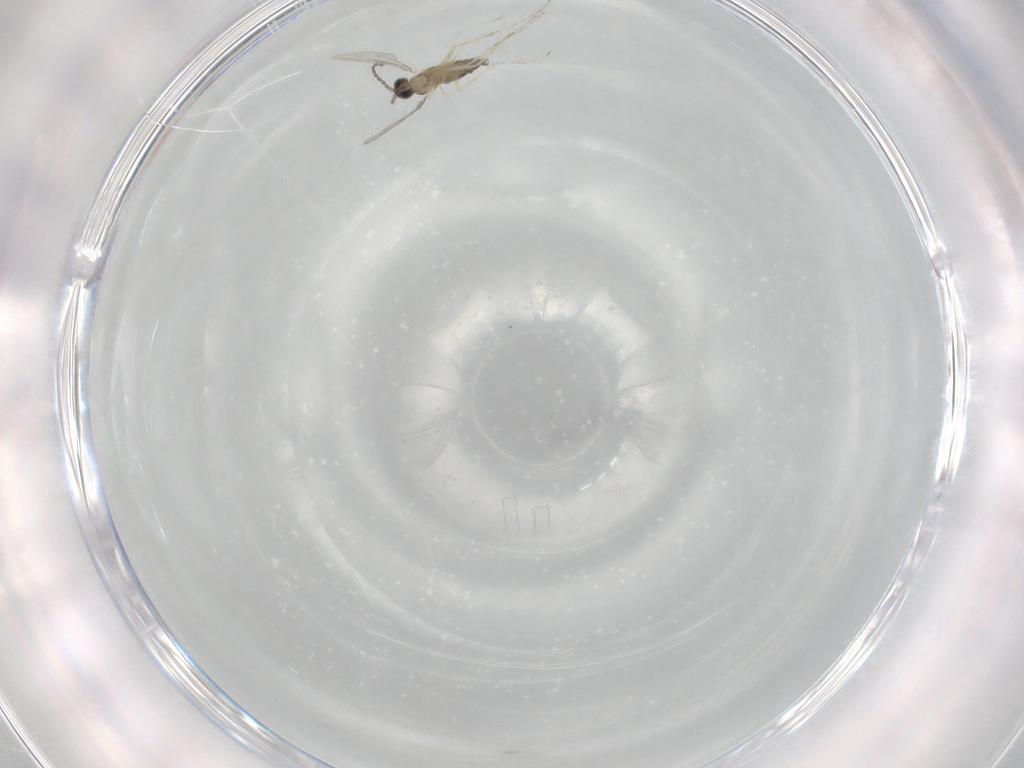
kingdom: Animalia
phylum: Arthropoda
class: Insecta
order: Diptera
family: Cecidomyiidae
